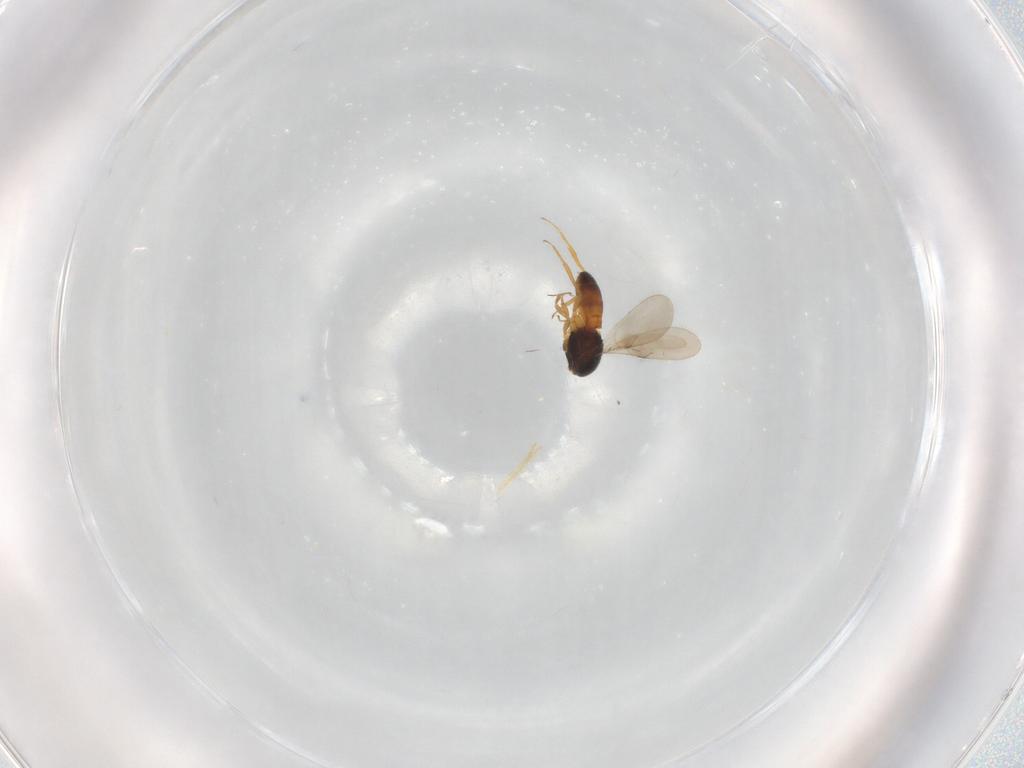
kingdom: Animalia
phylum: Arthropoda
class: Insecta
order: Hymenoptera
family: Scelionidae
